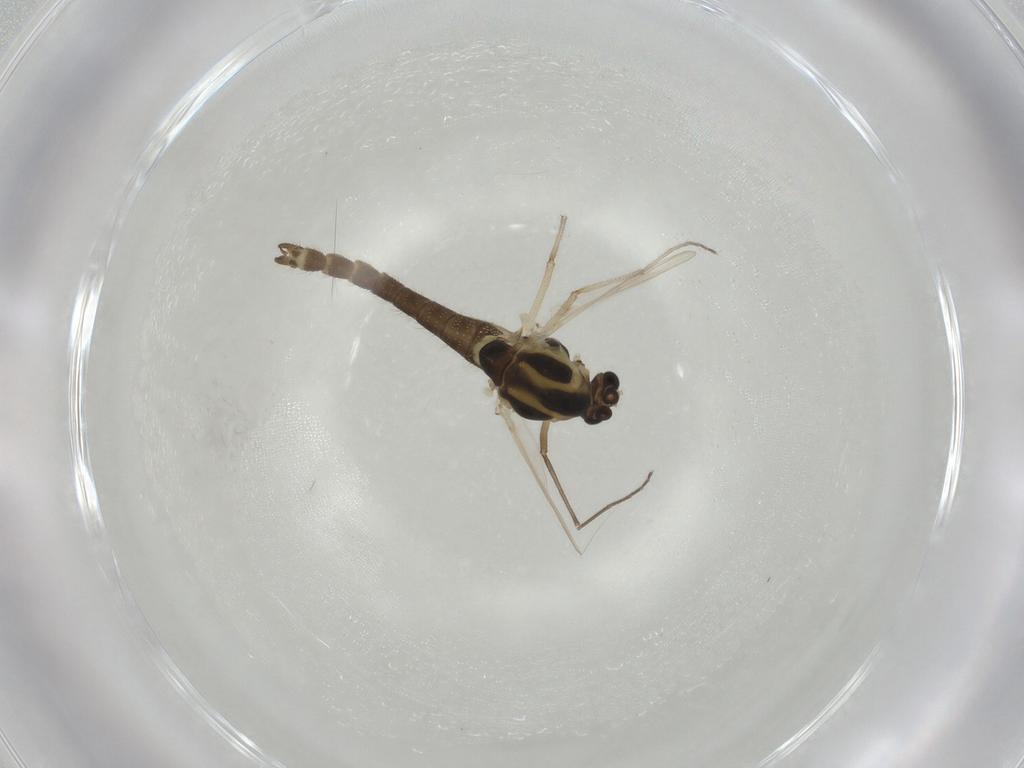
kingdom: Animalia
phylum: Arthropoda
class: Insecta
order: Diptera
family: Chironomidae
